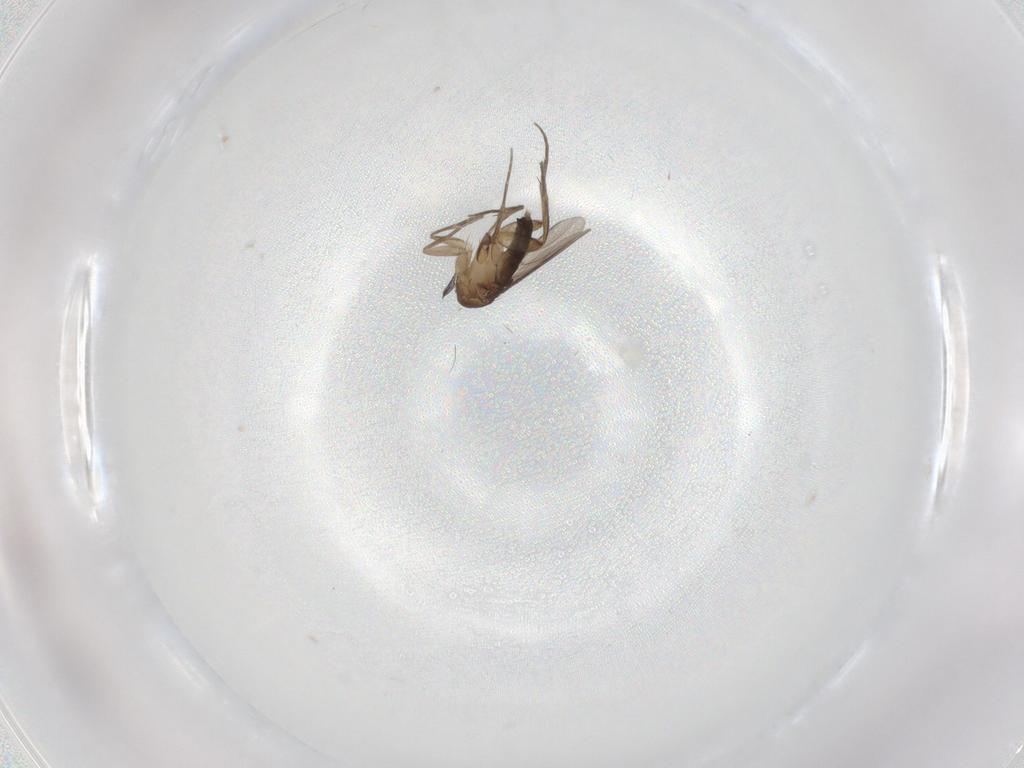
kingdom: Animalia
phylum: Arthropoda
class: Insecta
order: Diptera
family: Phoridae
